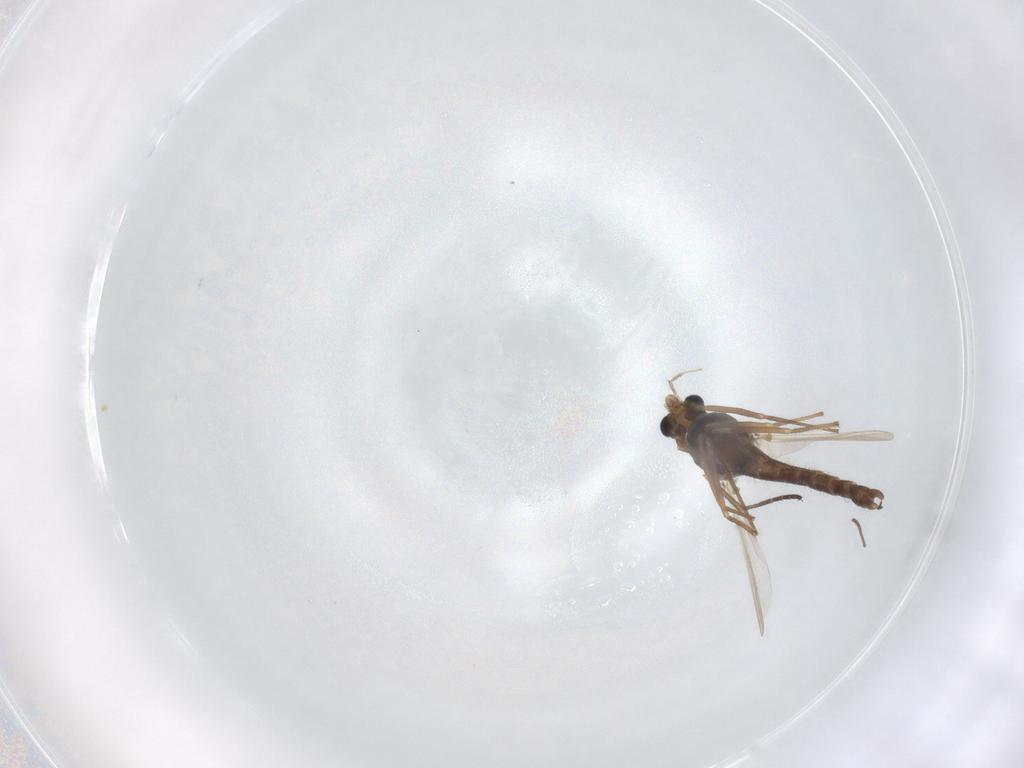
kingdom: Animalia
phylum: Arthropoda
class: Insecta
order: Diptera
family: Chironomidae
